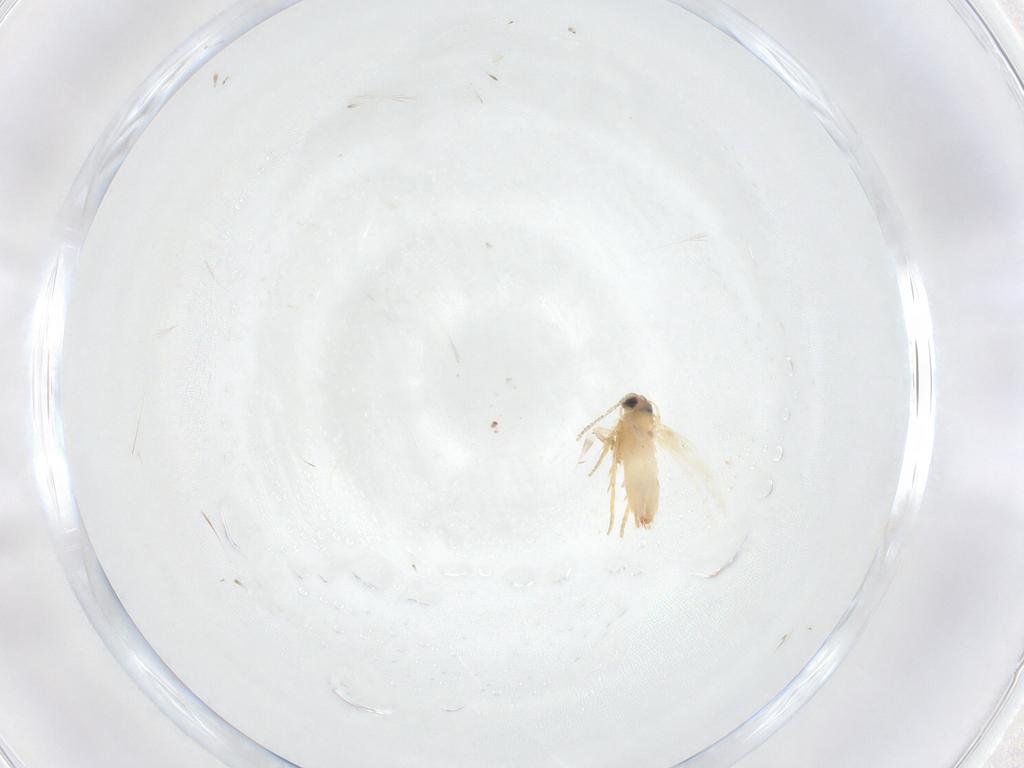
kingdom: Animalia
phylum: Arthropoda
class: Insecta
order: Lepidoptera
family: Crambidae
